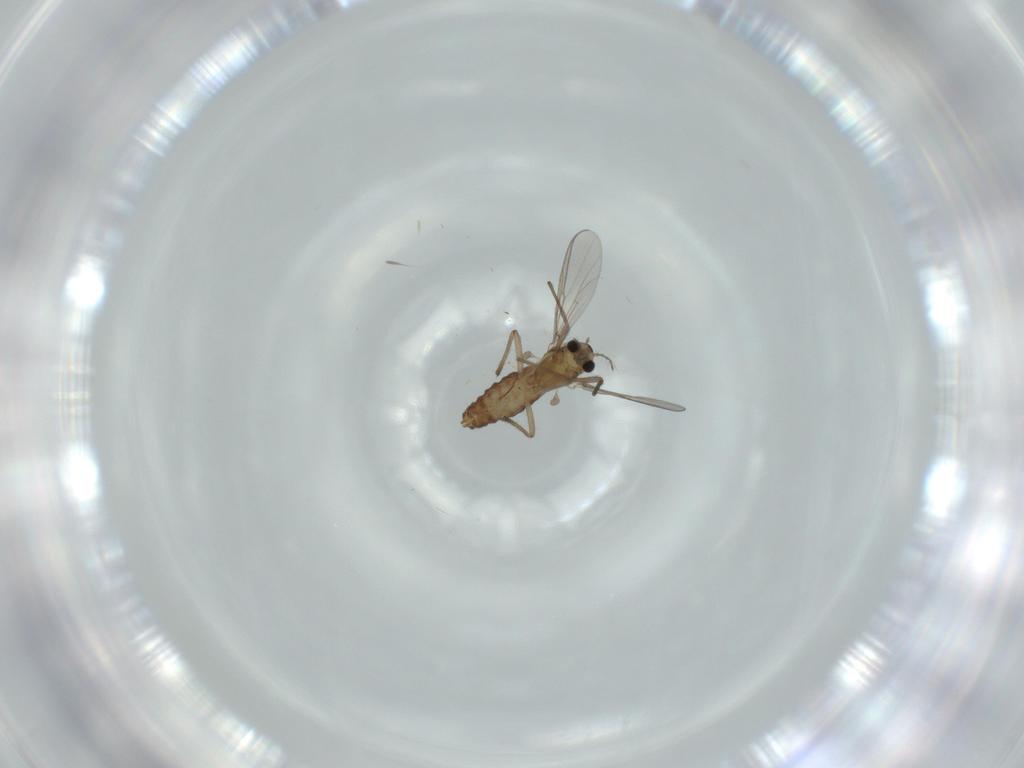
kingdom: Animalia
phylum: Arthropoda
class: Insecta
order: Diptera
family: Chironomidae
